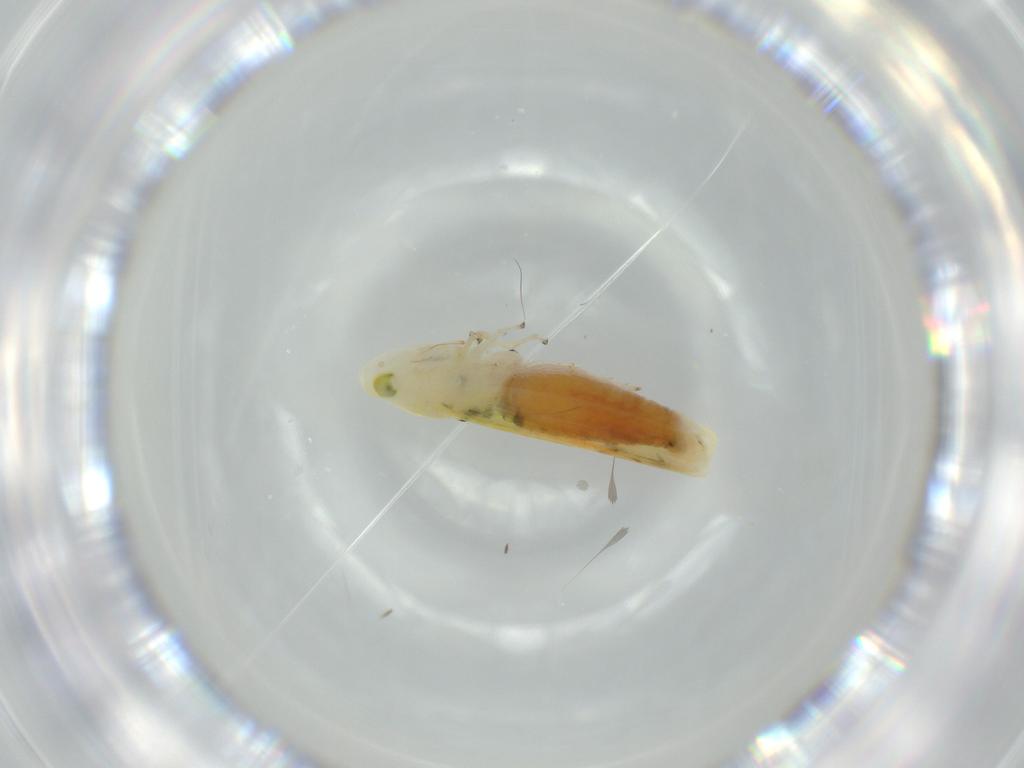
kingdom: Animalia
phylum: Arthropoda
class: Insecta
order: Hemiptera
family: Cicadellidae
